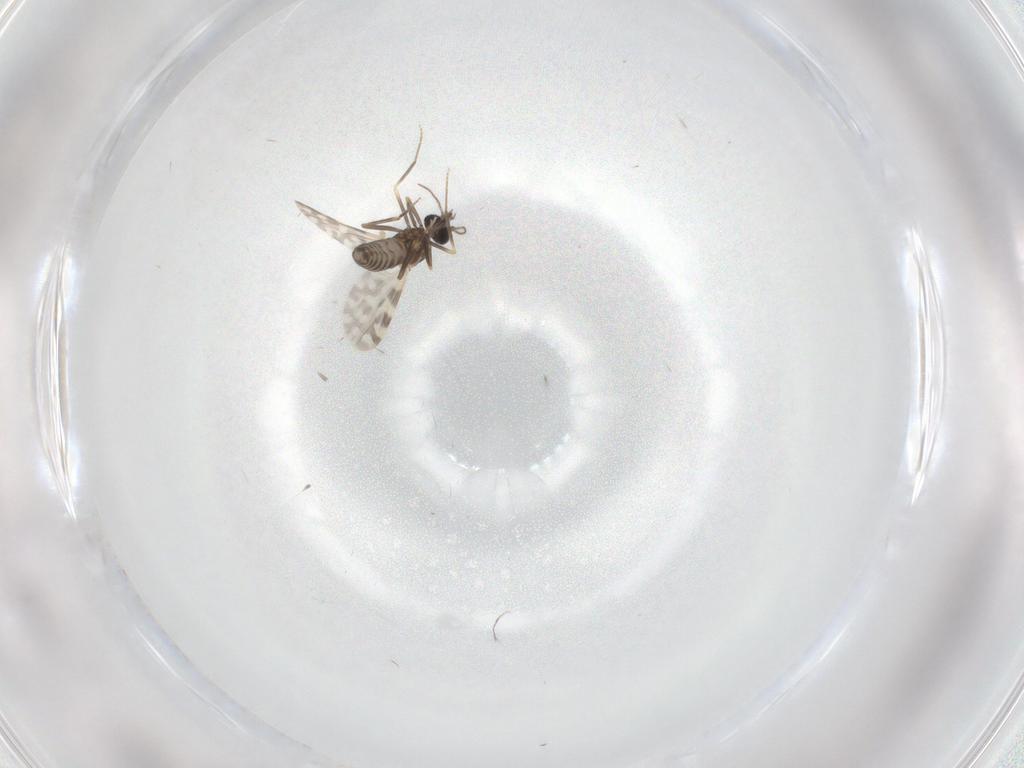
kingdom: Animalia
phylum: Arthropoda
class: Insecta
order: Diptera
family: Ceratopogonidae
